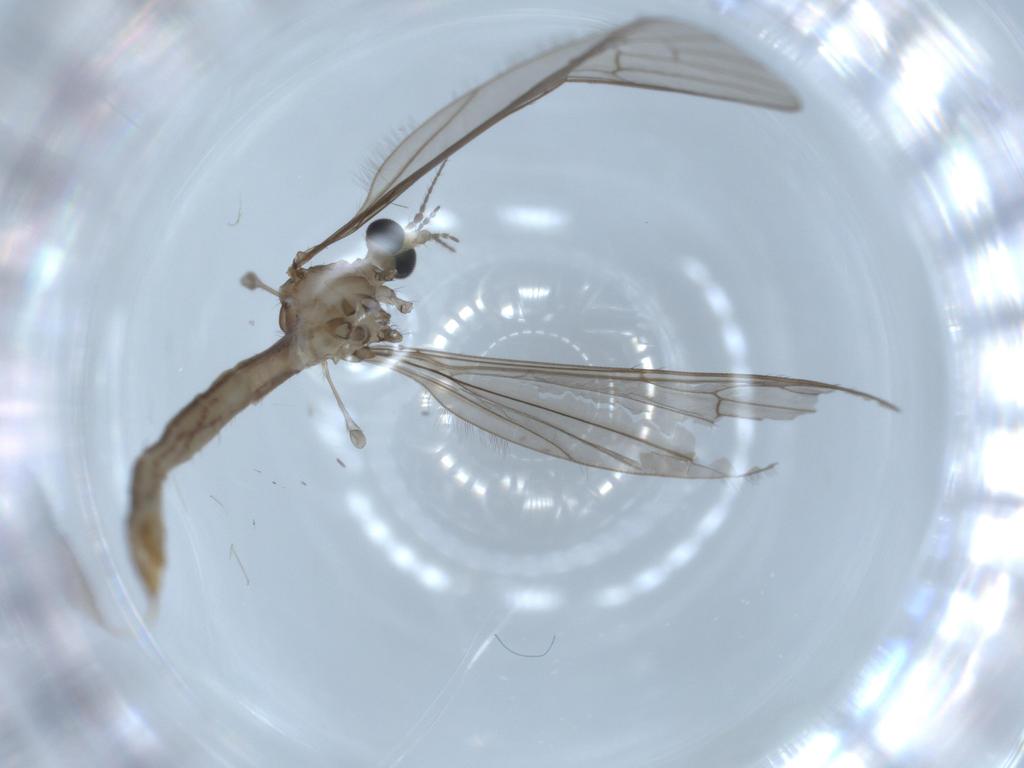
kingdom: Animalia
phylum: Arthropoda
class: Insecta
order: Diptera
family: Limoniidae
